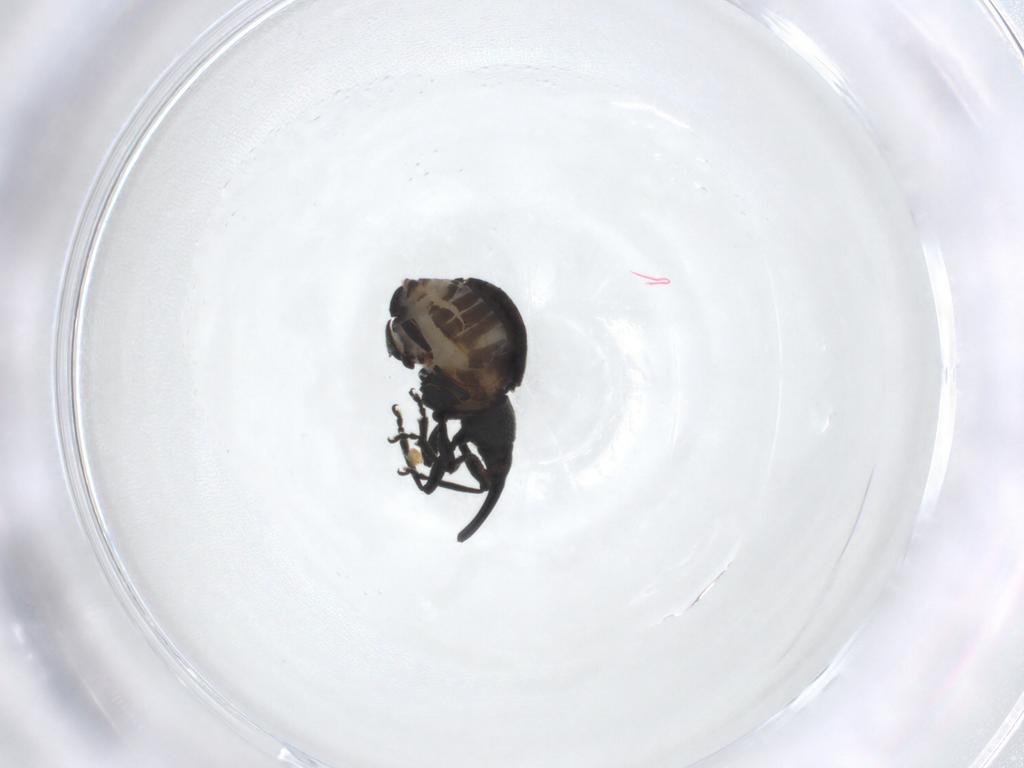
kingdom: Animalia
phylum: Arthropoda
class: Insecta
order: Coleoptera
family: Brentidae
